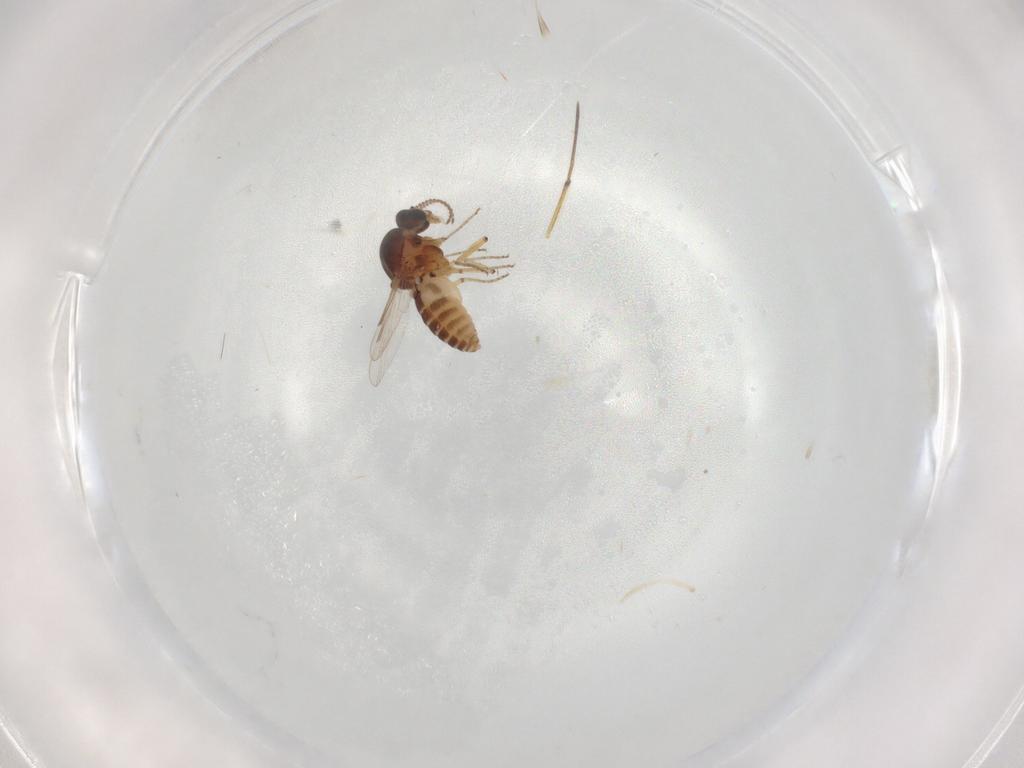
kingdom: Animalia
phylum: Arthropoda
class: Insecta
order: Diptera
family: Ceratopogonidae
